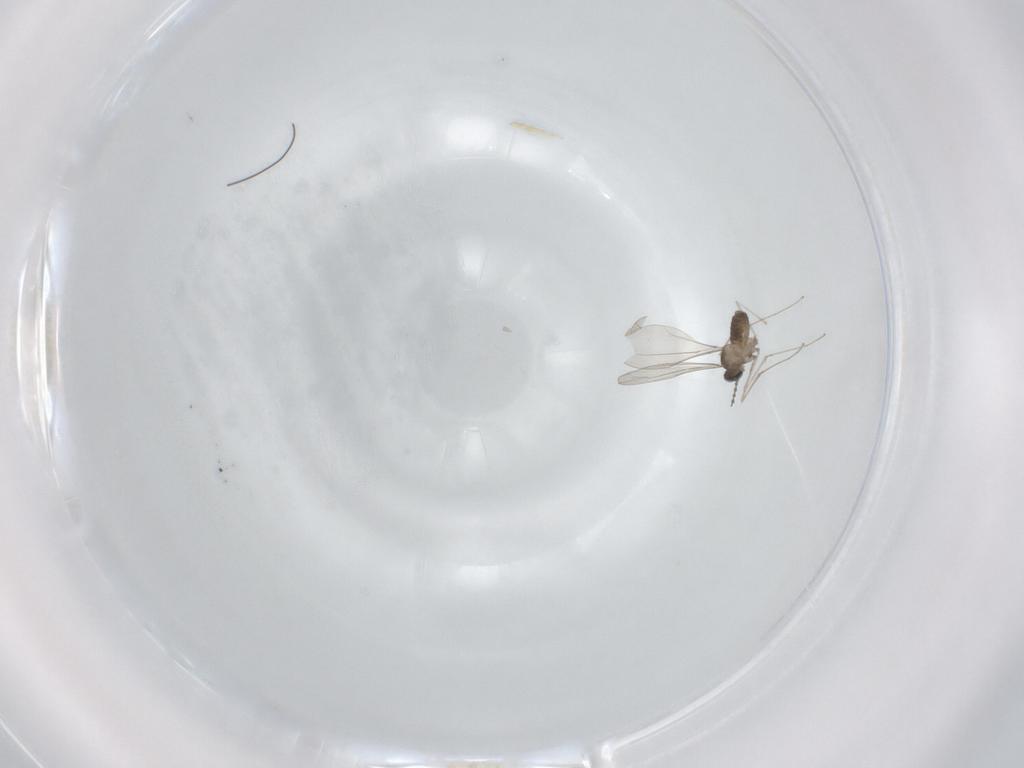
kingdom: Animalia
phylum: Arthropoda
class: Insecta
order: Diptera
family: Cecidomyiidae
